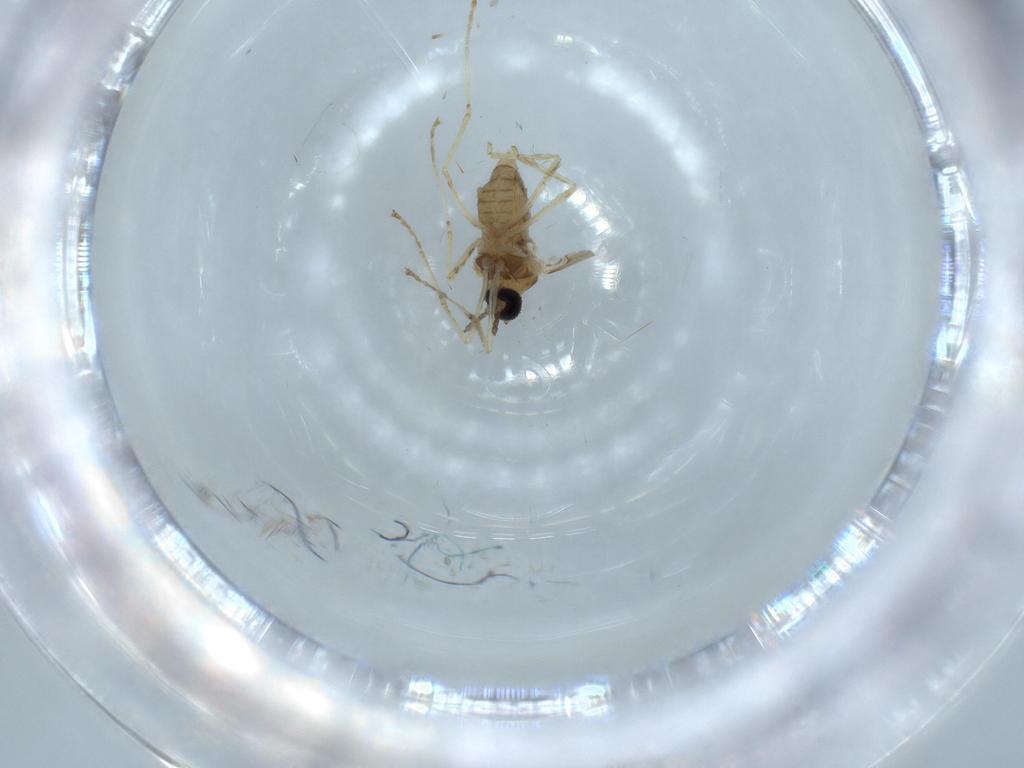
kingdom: Animalia
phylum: Arthropoda
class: Insecta
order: Diptera
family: Cecidomyiidae
